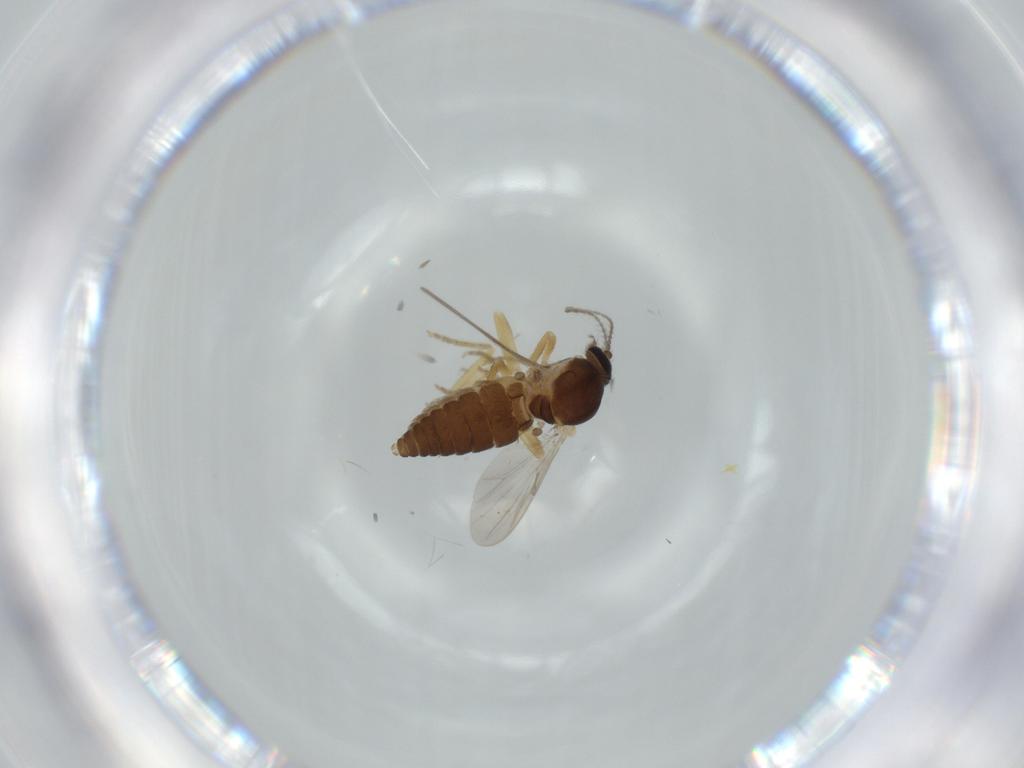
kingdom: Animalia
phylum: Arthropoda
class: Insecta
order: Diptera
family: Ceratopogonidae
